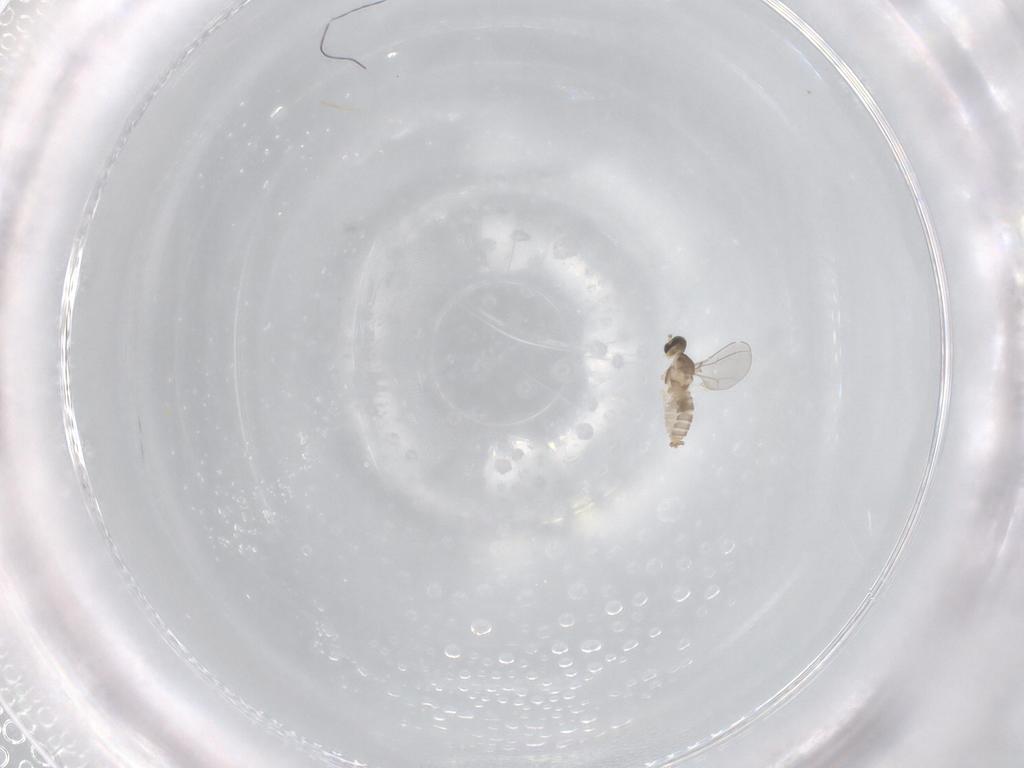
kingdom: Animalia
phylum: Arthropoda
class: Insecta
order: Diptera
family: Cecidomyiidae
